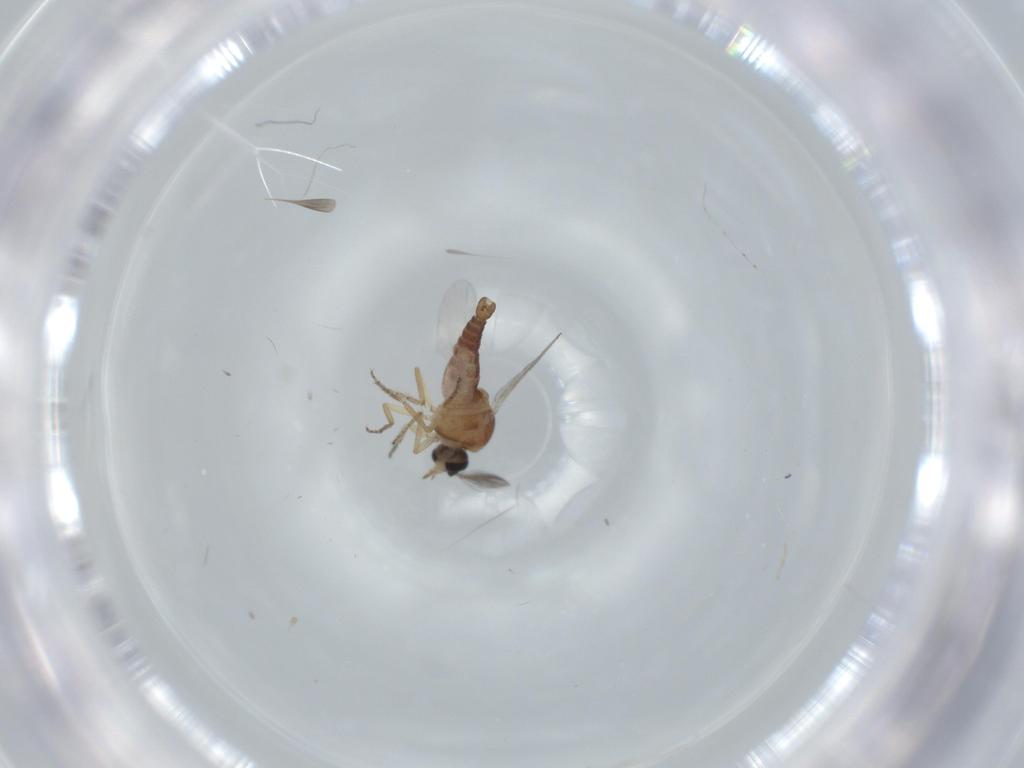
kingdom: Animalia
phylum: Arthropoda
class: Insecta
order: Diptera
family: Ceratopogonidae
